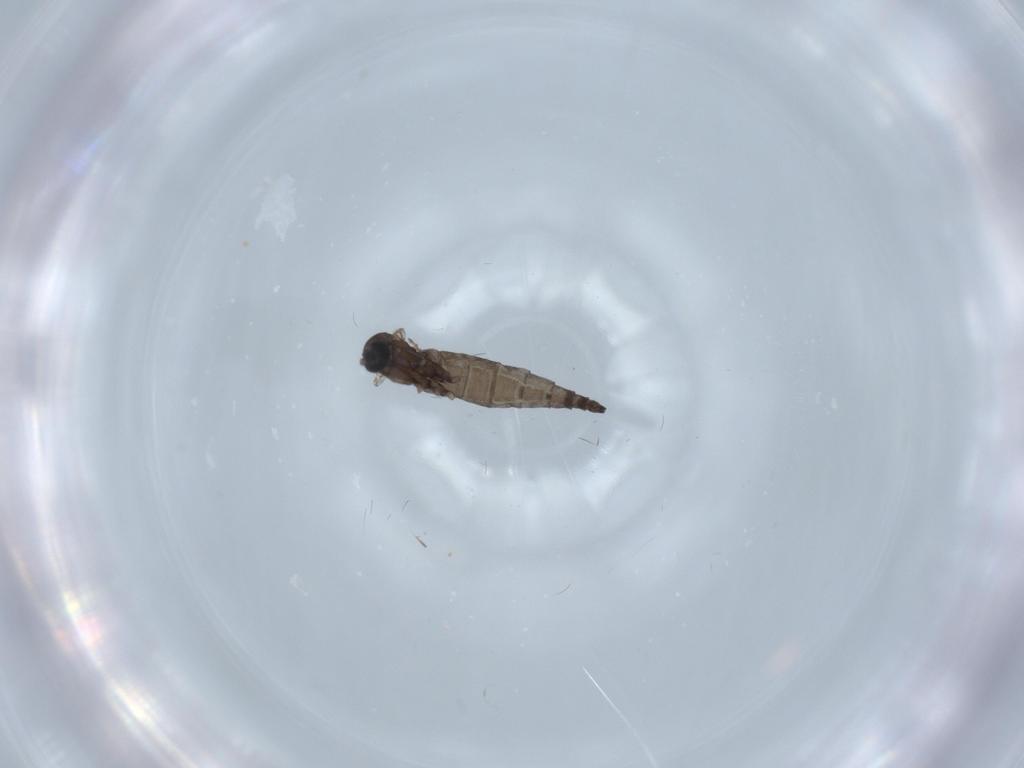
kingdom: Animalia
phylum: Arthropoda
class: Insecta
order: Diptera
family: Sciaridae
